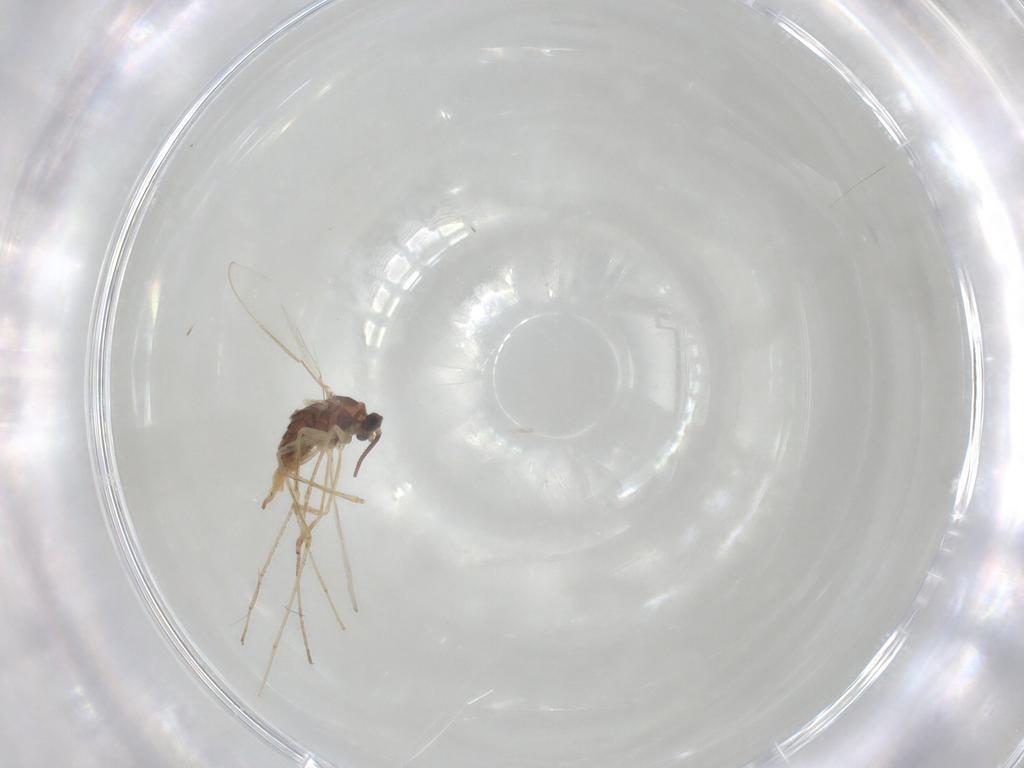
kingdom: Animalia
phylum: Arthropoda
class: Insecta
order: Diptera
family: Cecidomyiidae
